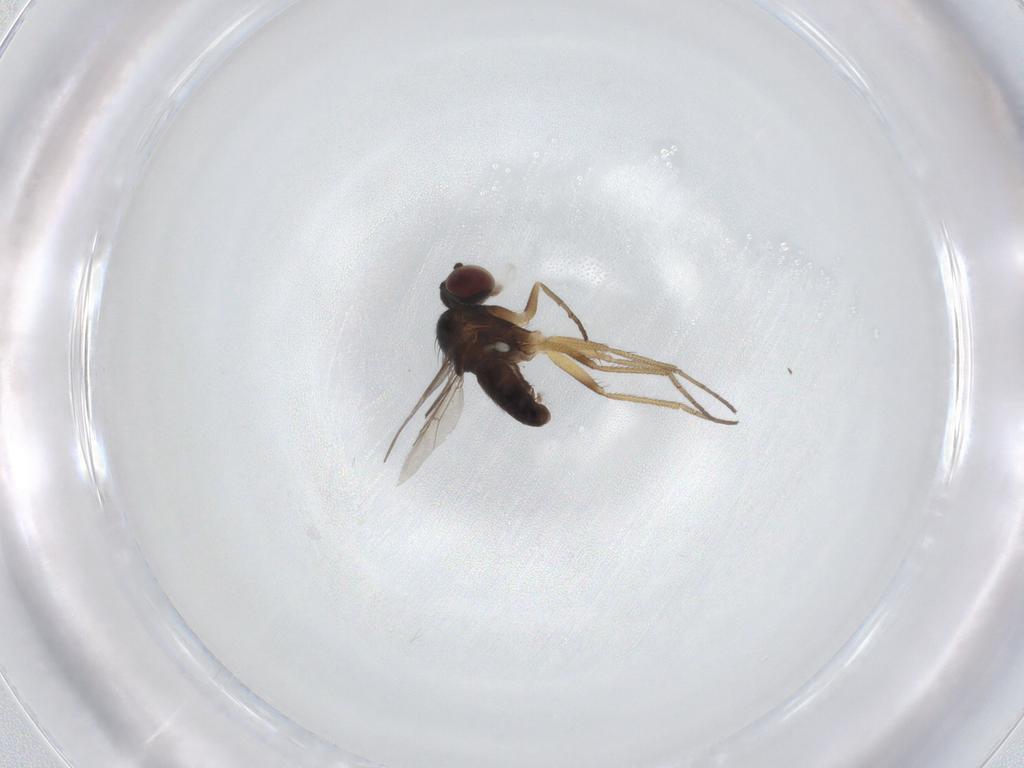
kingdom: Animalia
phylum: Arthropoda
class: Insecta
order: Diptera
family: Dolichopodidae
